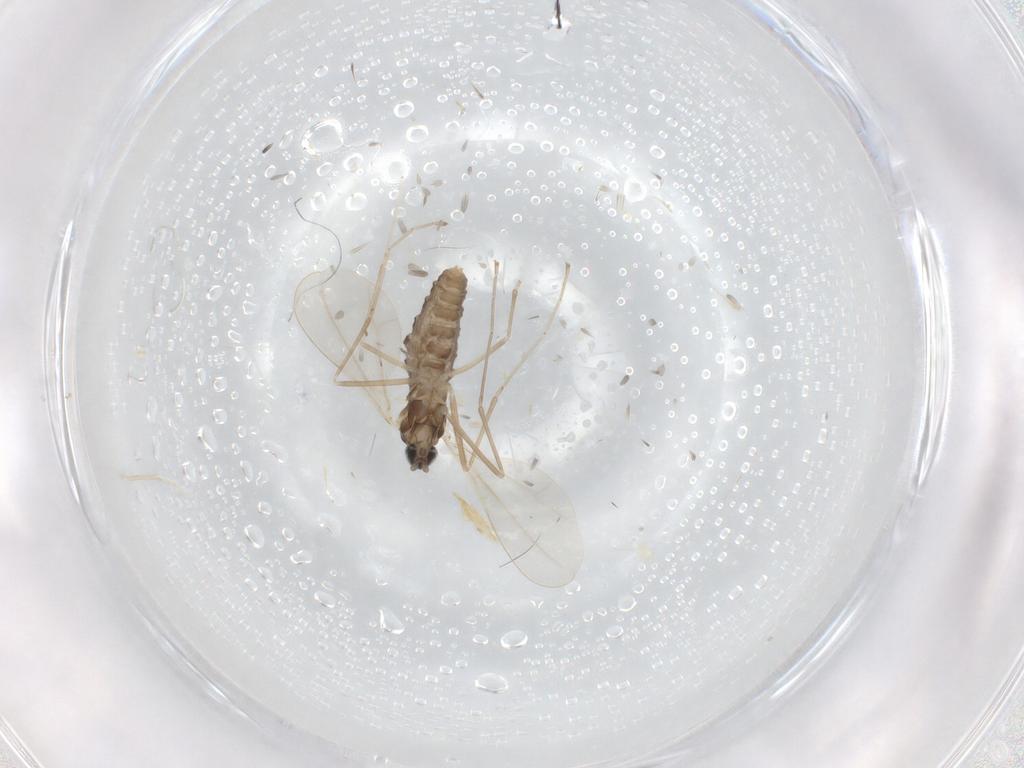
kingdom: Animalia
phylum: Arthropoda
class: Insecta
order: Diptera
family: Cecidomyiidae
